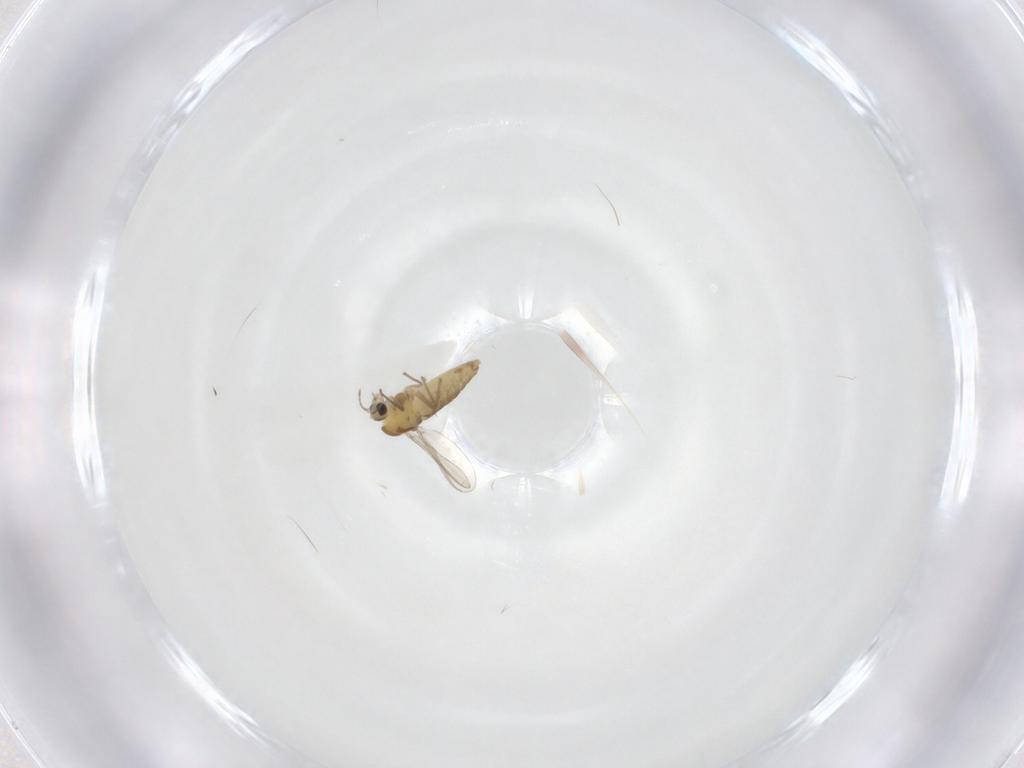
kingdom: Animalia
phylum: Arthropoda
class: Insecta
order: Diptera
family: Chironomidae
